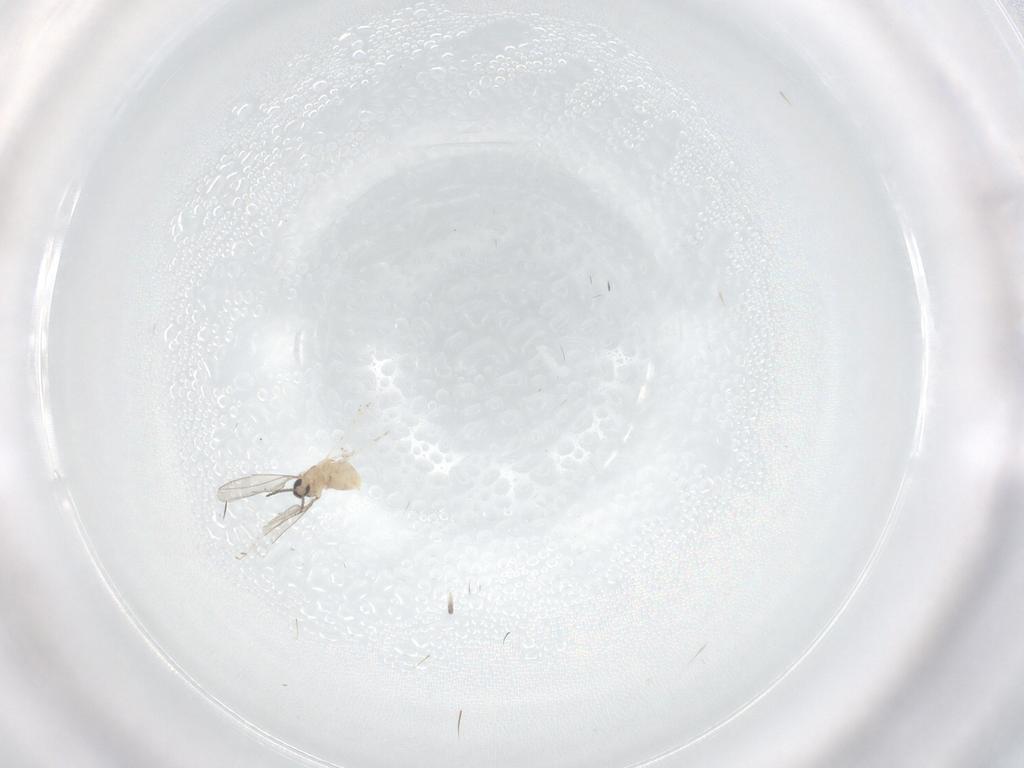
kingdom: Animalia
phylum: Arthropoda
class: Insecta
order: Diptera
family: Cecidomyiidae
